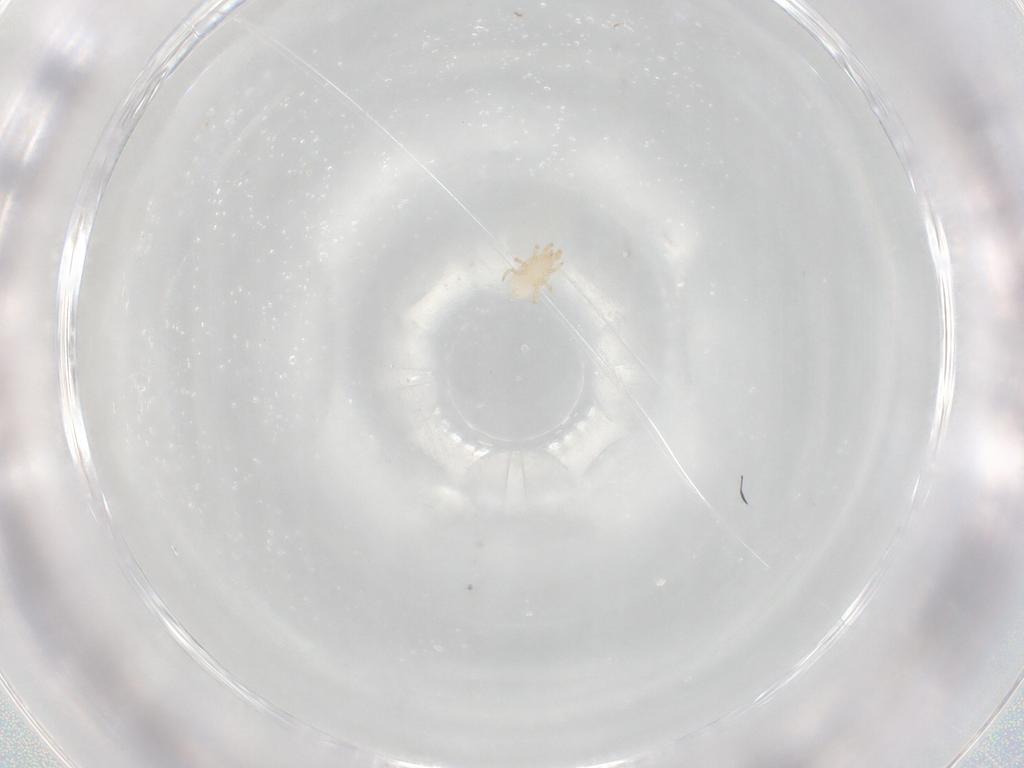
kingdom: Animalia
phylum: Arthropoda
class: Arachnida
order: Mesostigmata
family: Melicharidae
